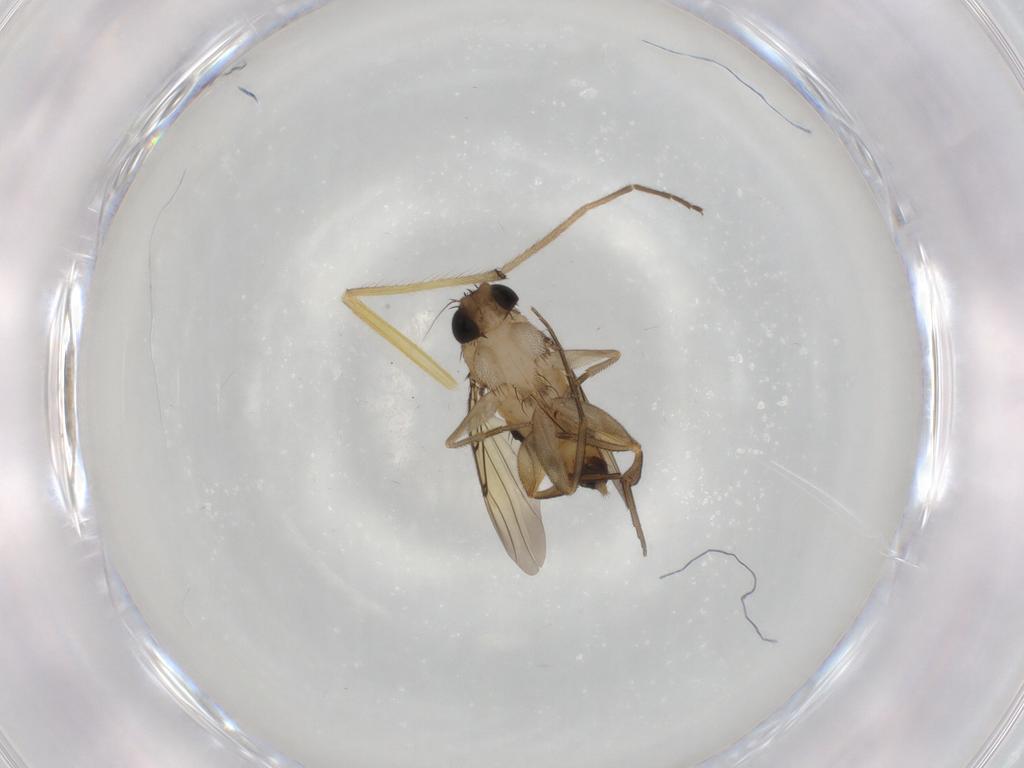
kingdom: Animalia
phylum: Arthropoda
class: Insecta
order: Diptera
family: Chironomidae
